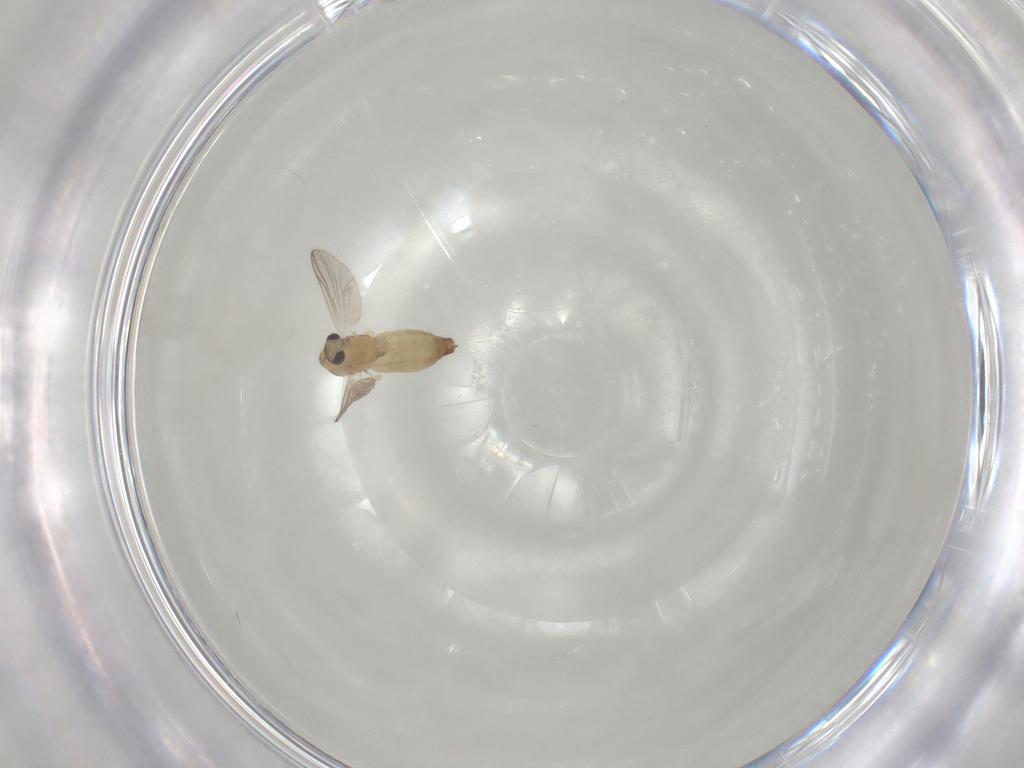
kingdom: Animalia
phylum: Arthropoda
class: Insecta
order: Diptera
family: Chironomidae
